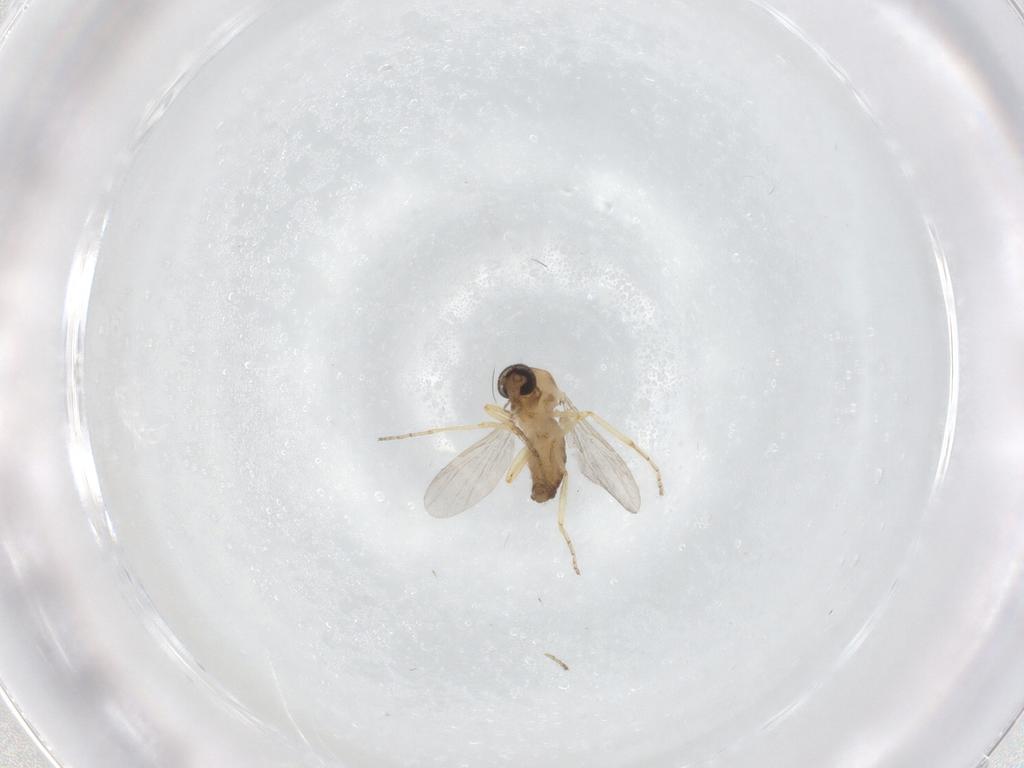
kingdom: Animalia
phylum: Arthropoda
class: Insecta
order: Diptera
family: Ceratopogonidae
